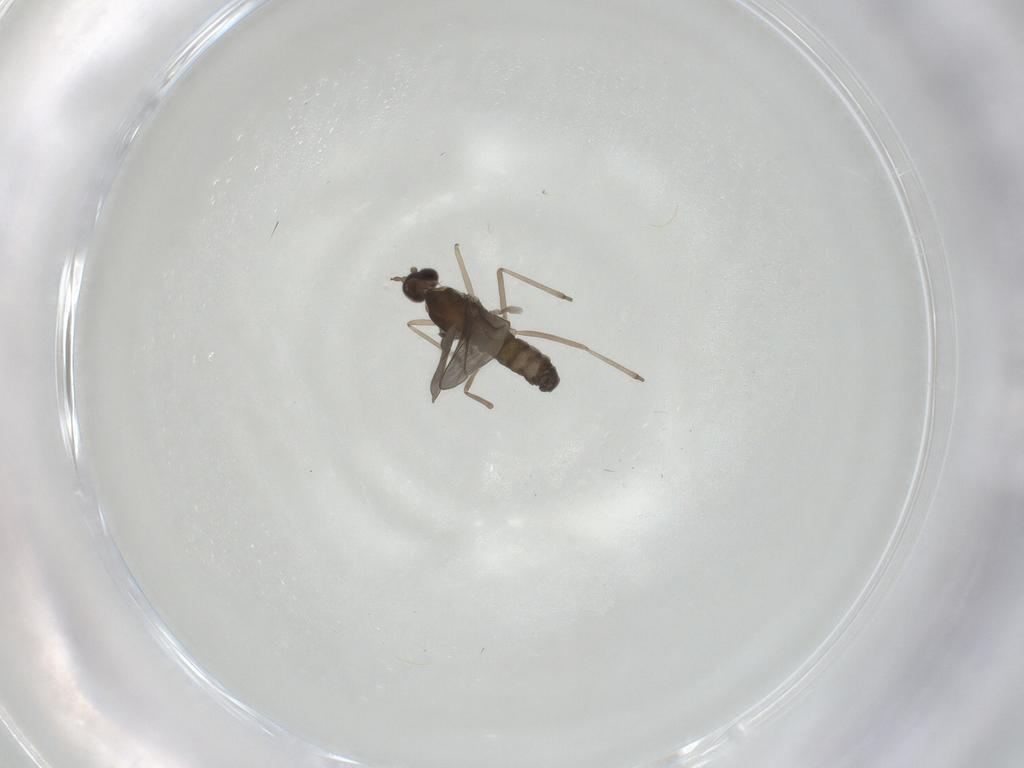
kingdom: Animalia
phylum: Arthropoda
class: Insecta
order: Diptera
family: Cecidomyiidae
